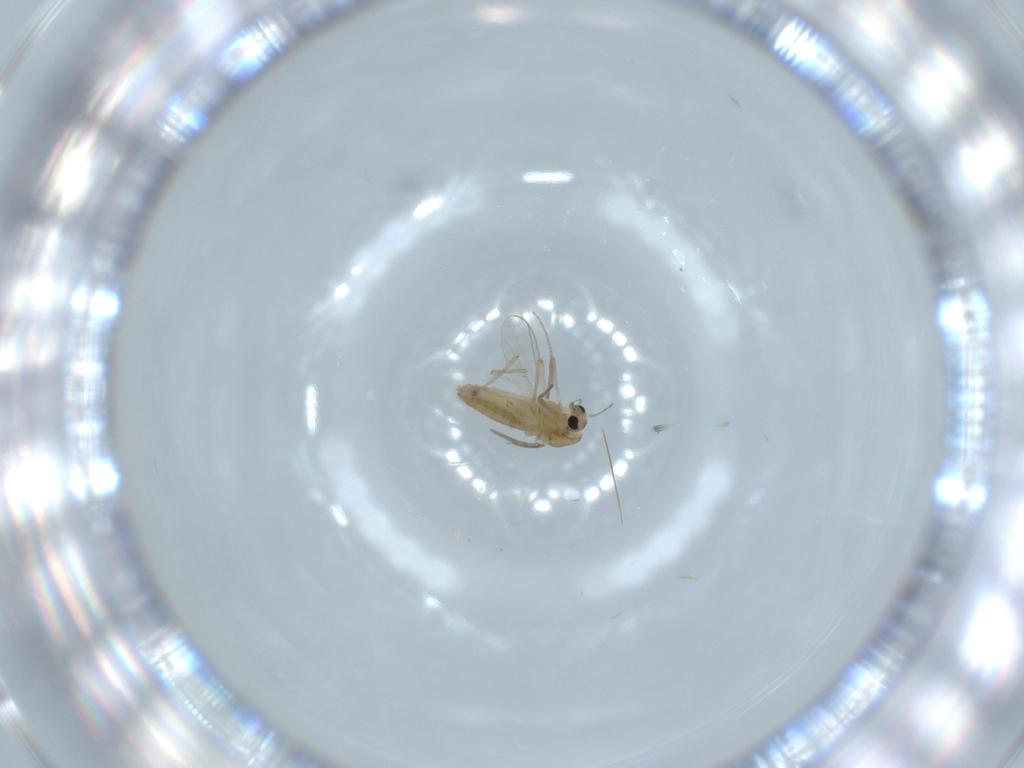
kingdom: Animalia
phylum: Arthropoda
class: Insecta
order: Diptera
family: Chironomidae
